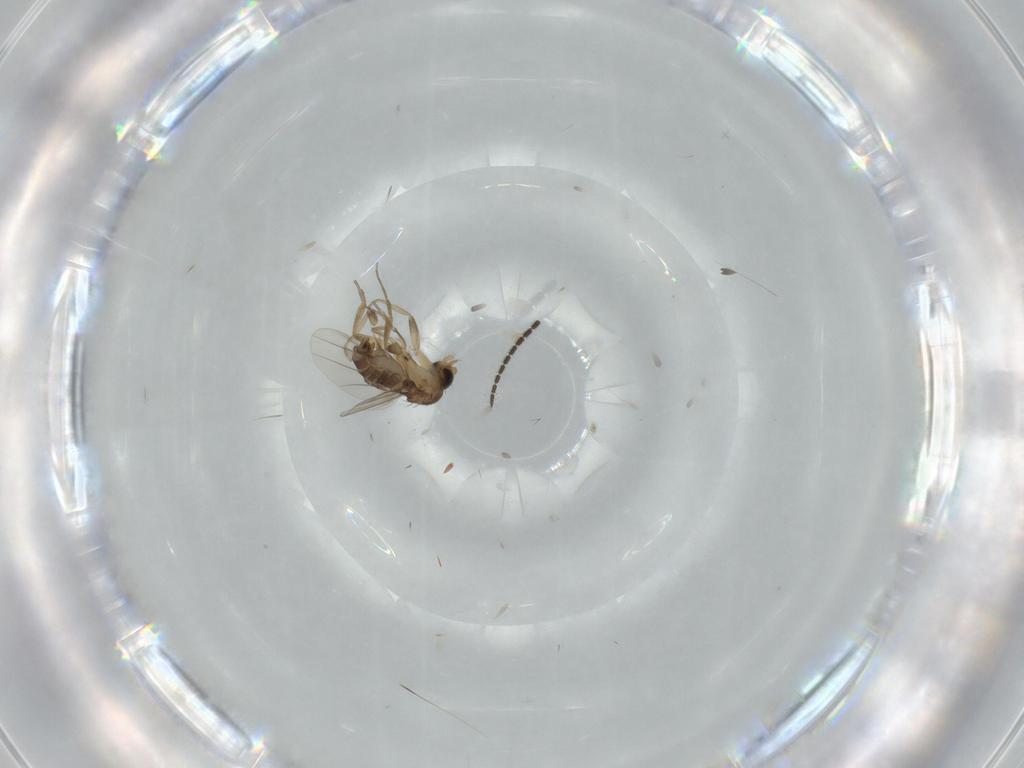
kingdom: Animalia
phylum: Arthropoda
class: Insecta
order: Diptera
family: Phoridae
